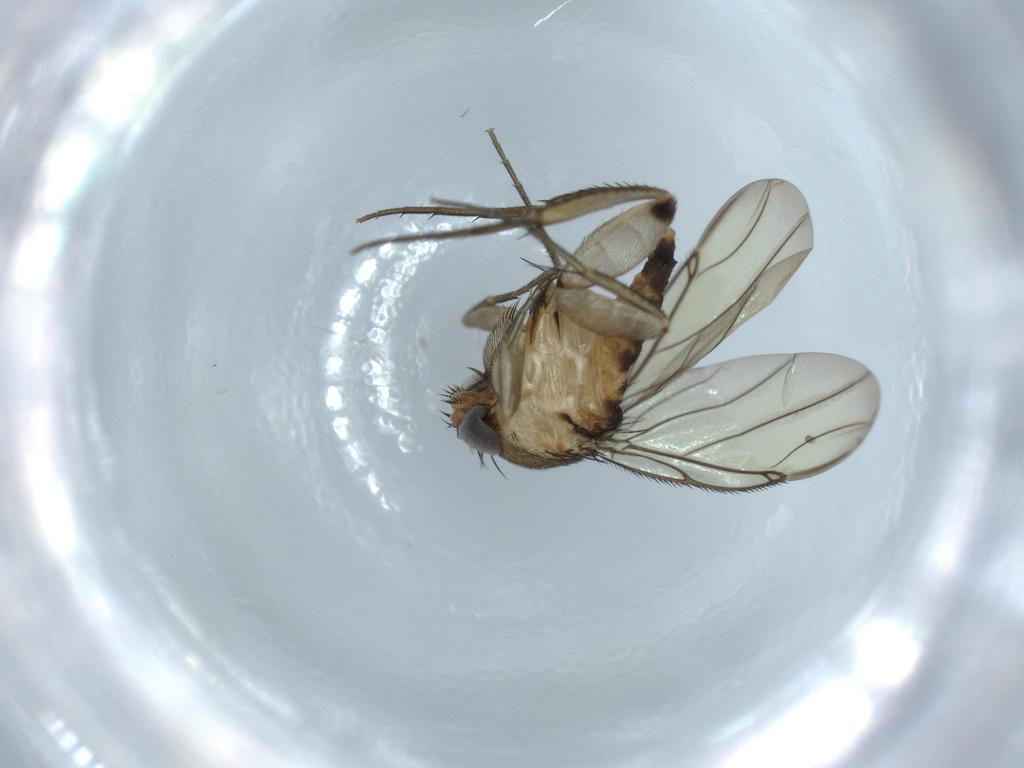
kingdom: Animalia
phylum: Arthropoda
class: Insecta
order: Diptera
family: Phoridae
